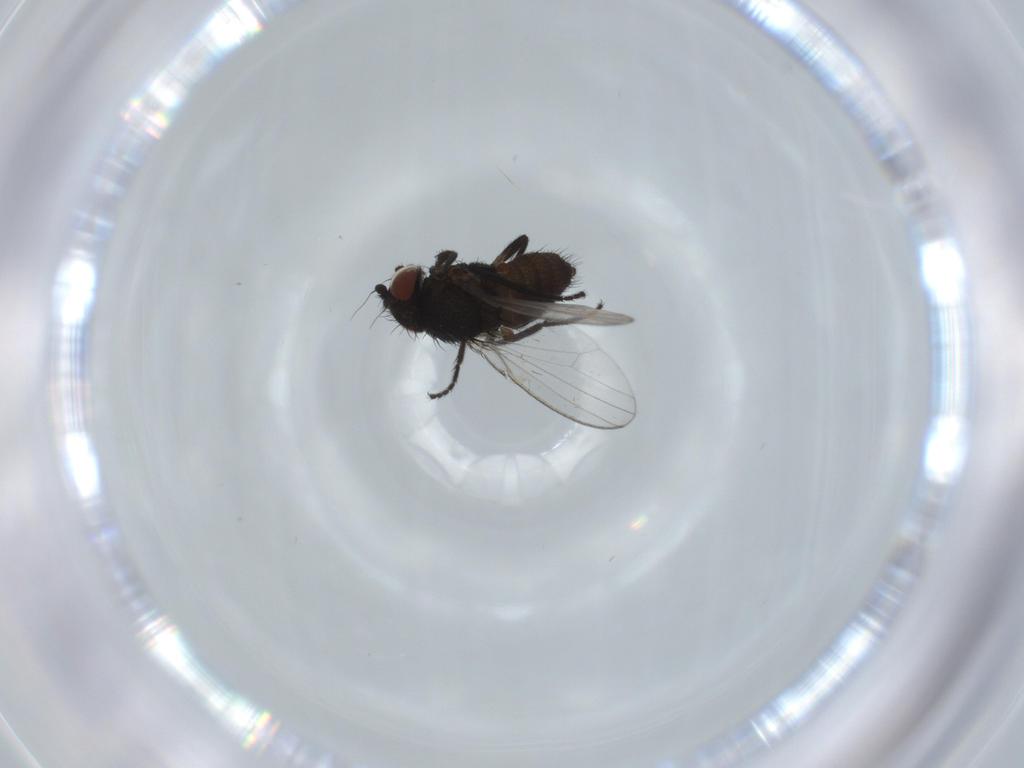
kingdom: Animalia
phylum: Arthropoda
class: Insecta
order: Diptera
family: Milichiidae
